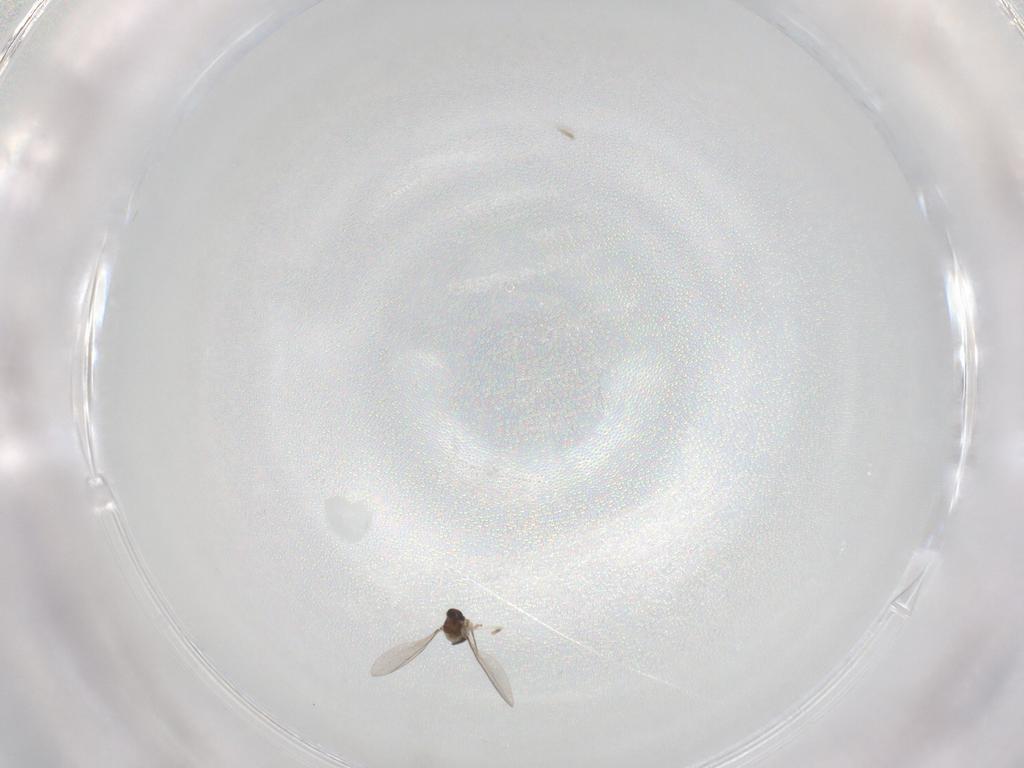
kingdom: Animalia
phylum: Arthropoda
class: Insecta
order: Diptera
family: Cecidomyiidae
